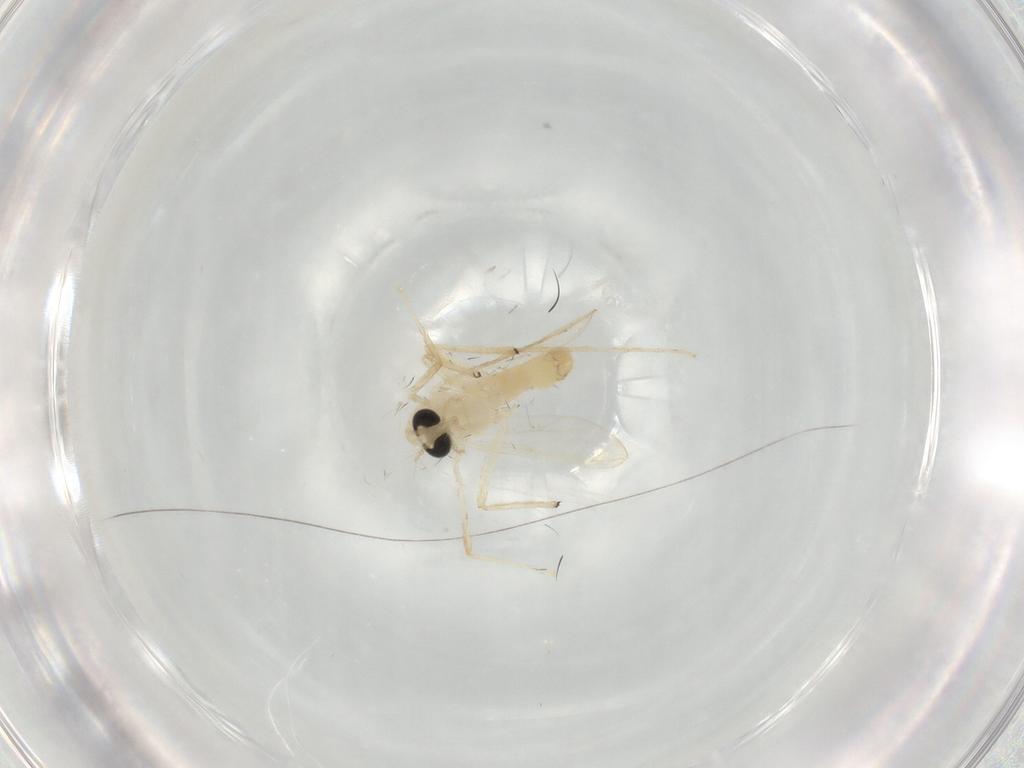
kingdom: Animalia
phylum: Arthropoda
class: Insecta
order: Diptera
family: Chironomidae
